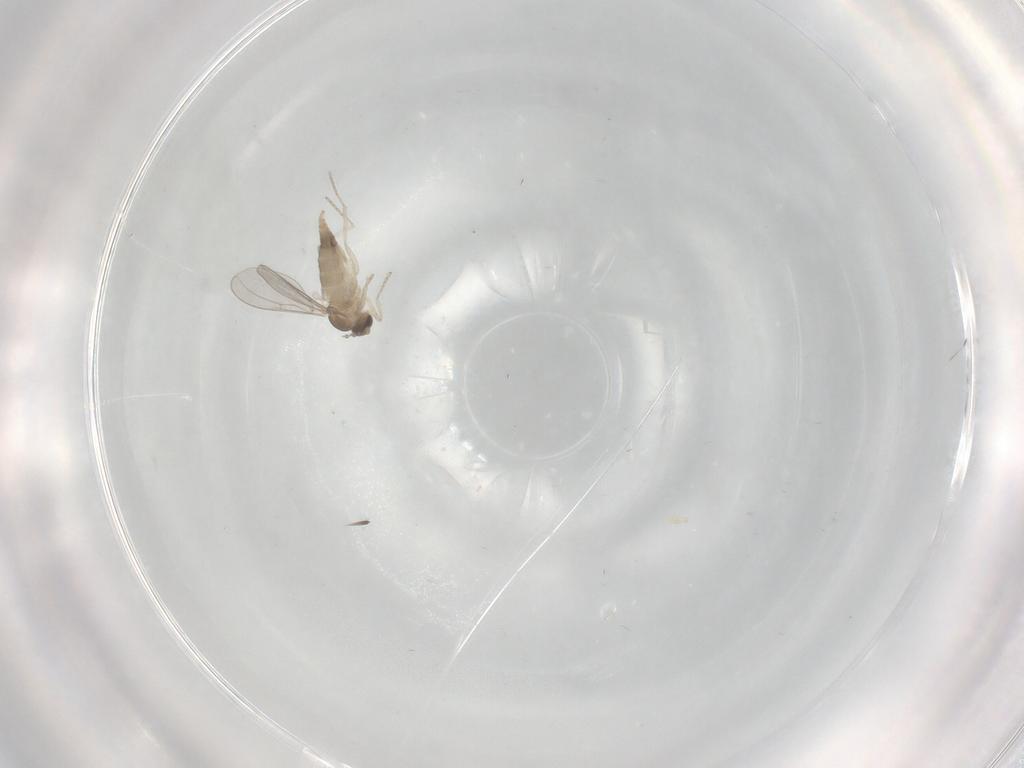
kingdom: Animalia
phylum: Arthropoda
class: Insecta
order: Diptera
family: Cecidomyiidae
